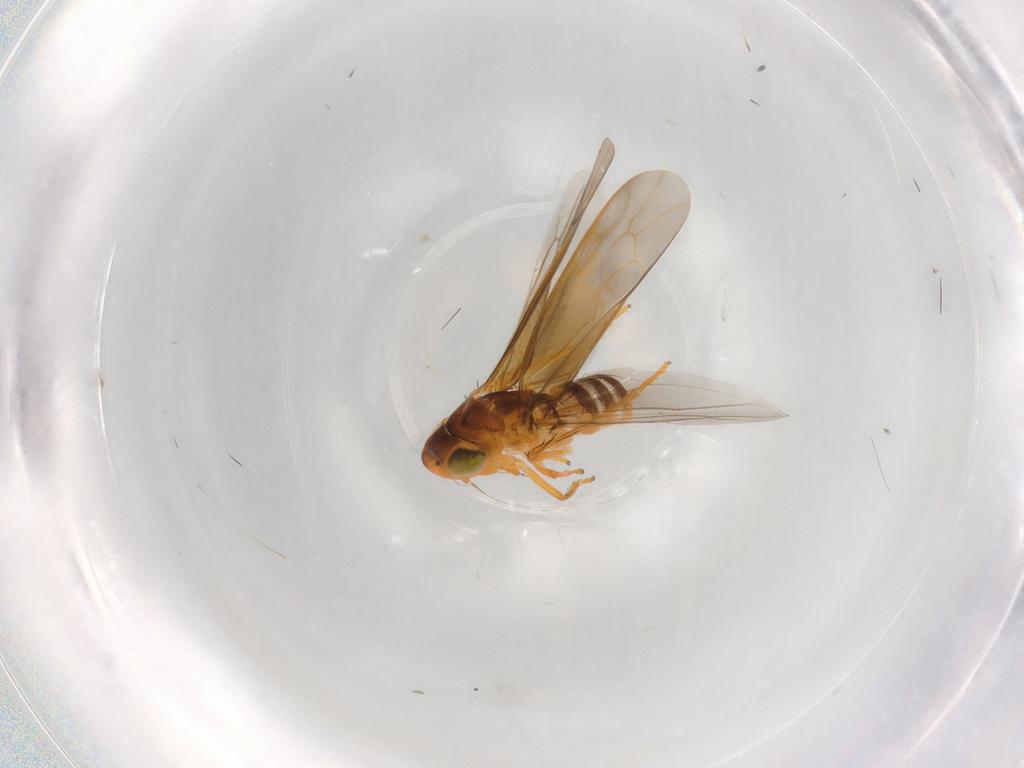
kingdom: Animalia
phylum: Arthropoda
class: Insecta
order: Hemiptera
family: Cicadellidae
